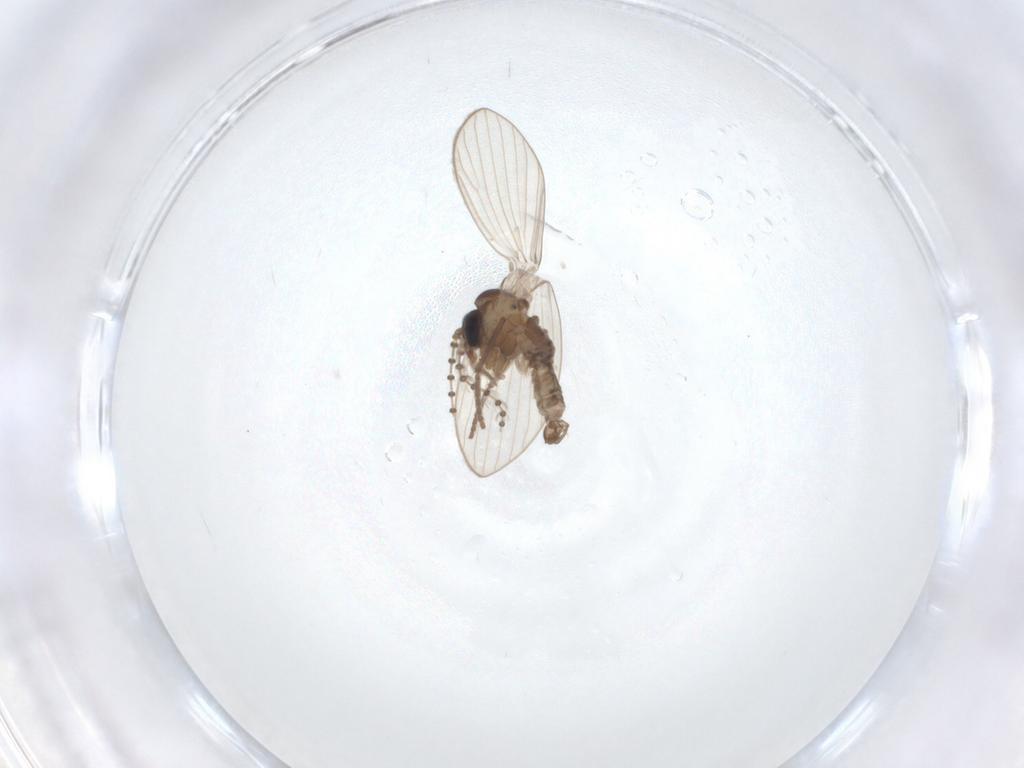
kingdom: Animalia
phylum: Arthropoda
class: Insecta
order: Diptera
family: Psychodidae
